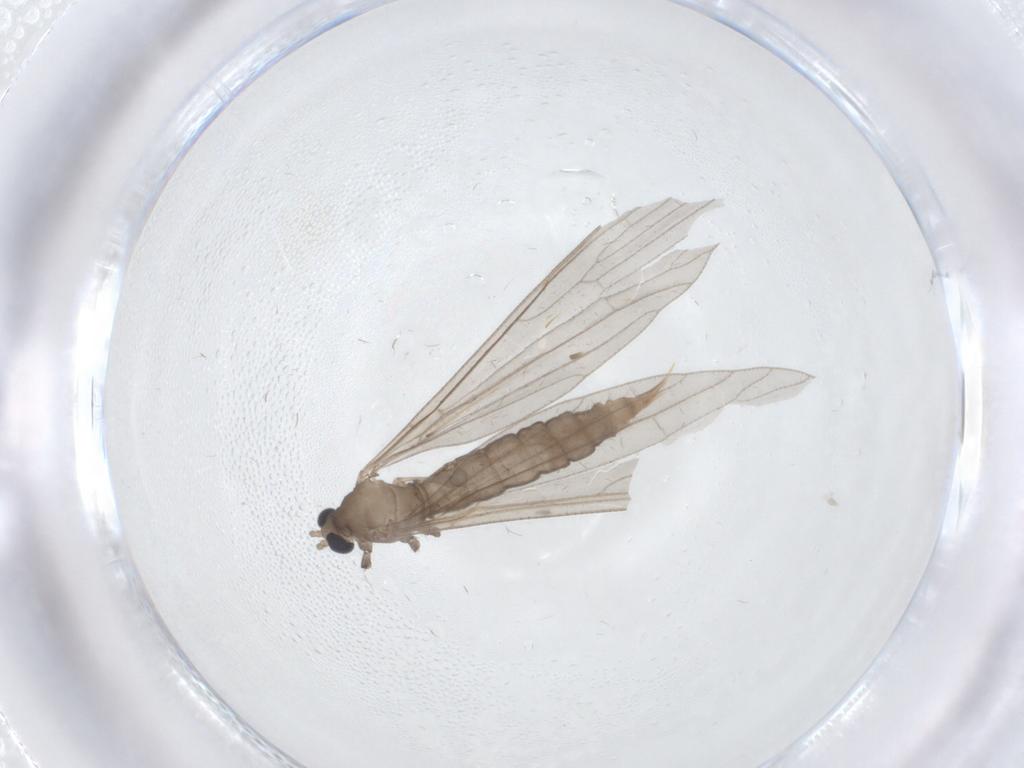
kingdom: Animalia
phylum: Arthropoda
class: Insecta
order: Diptera
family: Limoniidae
